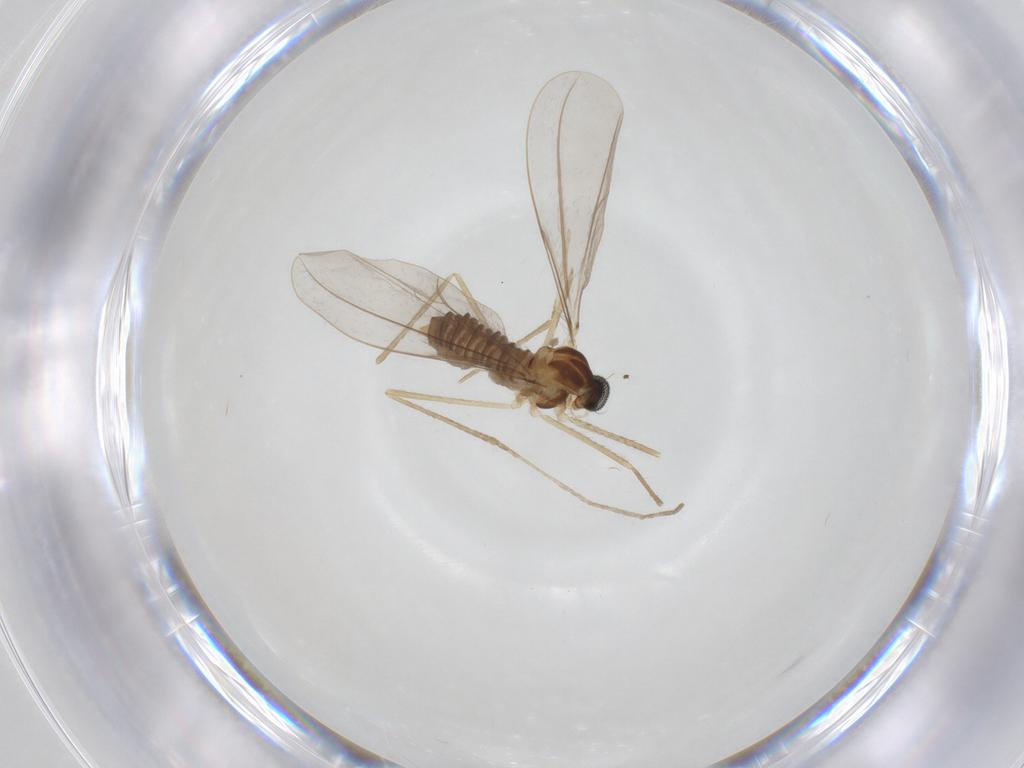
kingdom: Animalia
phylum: Arthropoda
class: Insecta
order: Diptera
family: Cecidomyiidae
